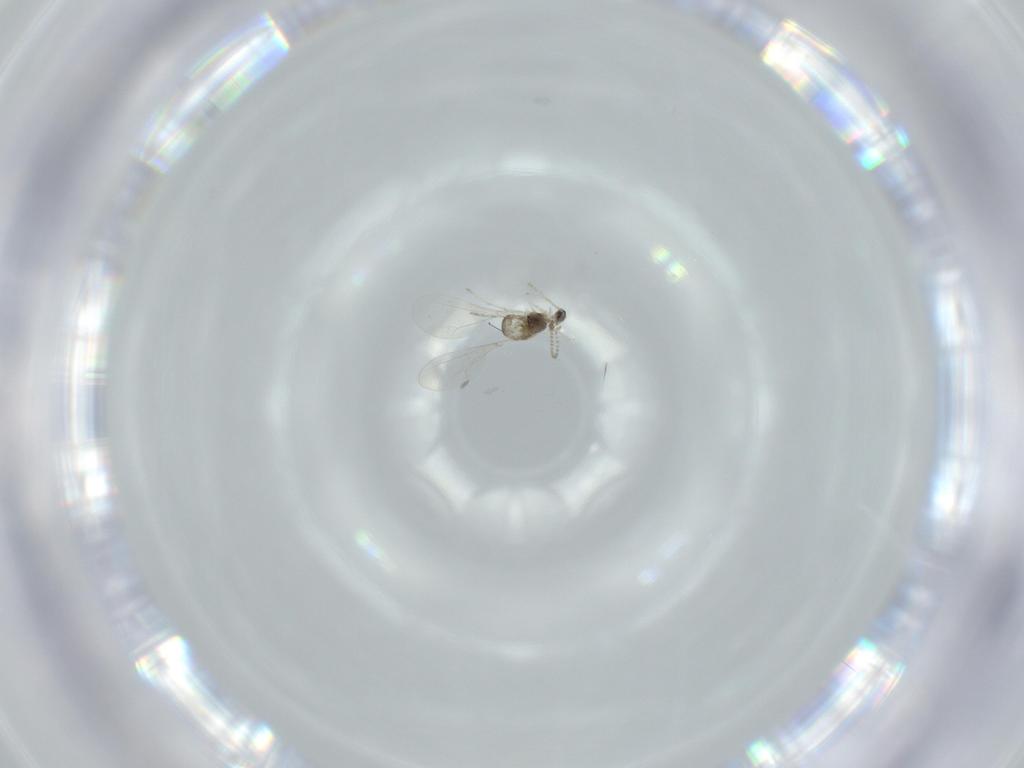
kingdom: Animalia
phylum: Arthropoda
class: Insecta
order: Diptera
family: Cecidomyiidae
